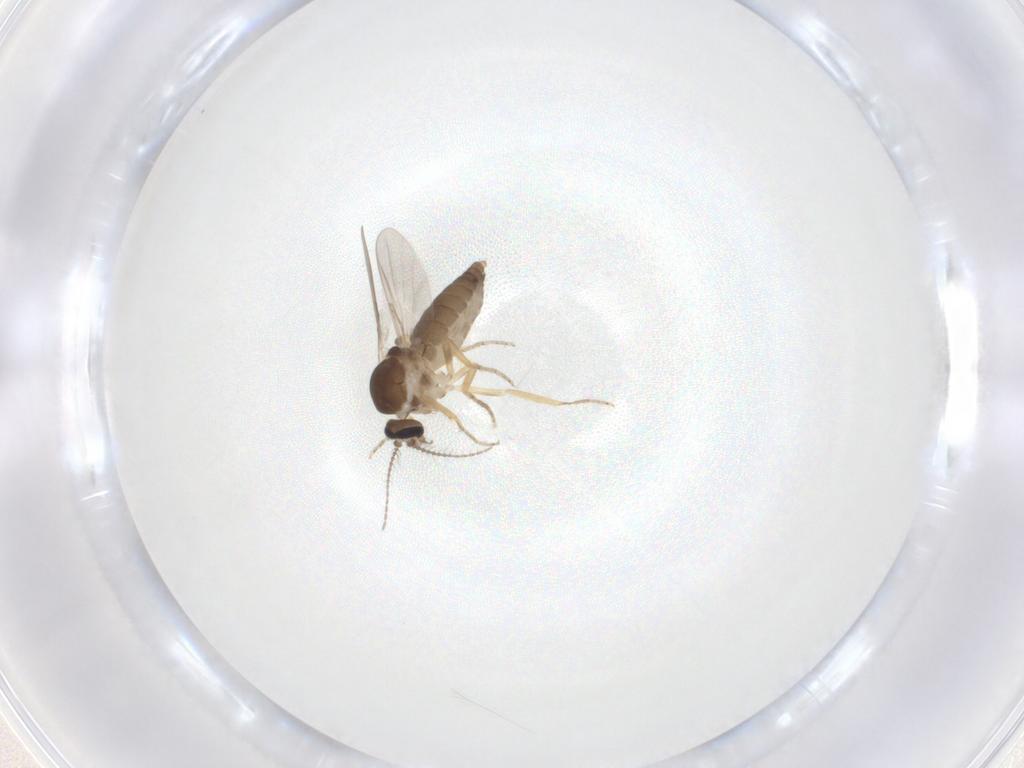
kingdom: Animalia
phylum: Arthropoda
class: Insecta
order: Diptera
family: Ceratopogonidae
